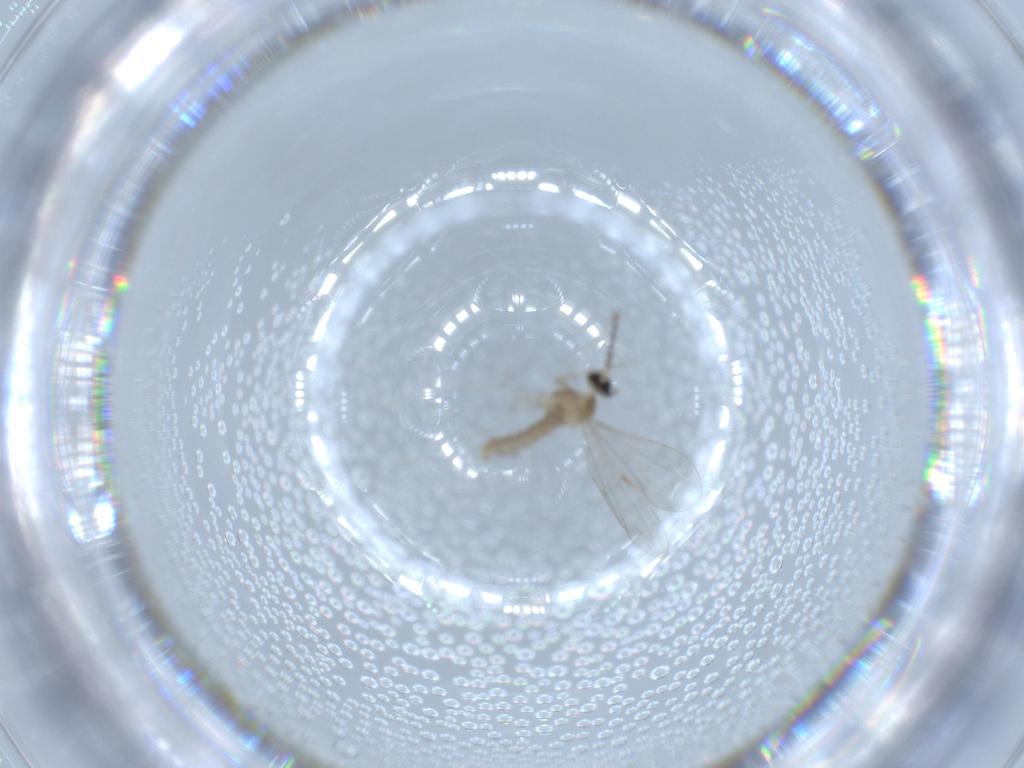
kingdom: Animalia
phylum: Arthropoda
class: Insecta
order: Diptera
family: Cecidomyiidae
